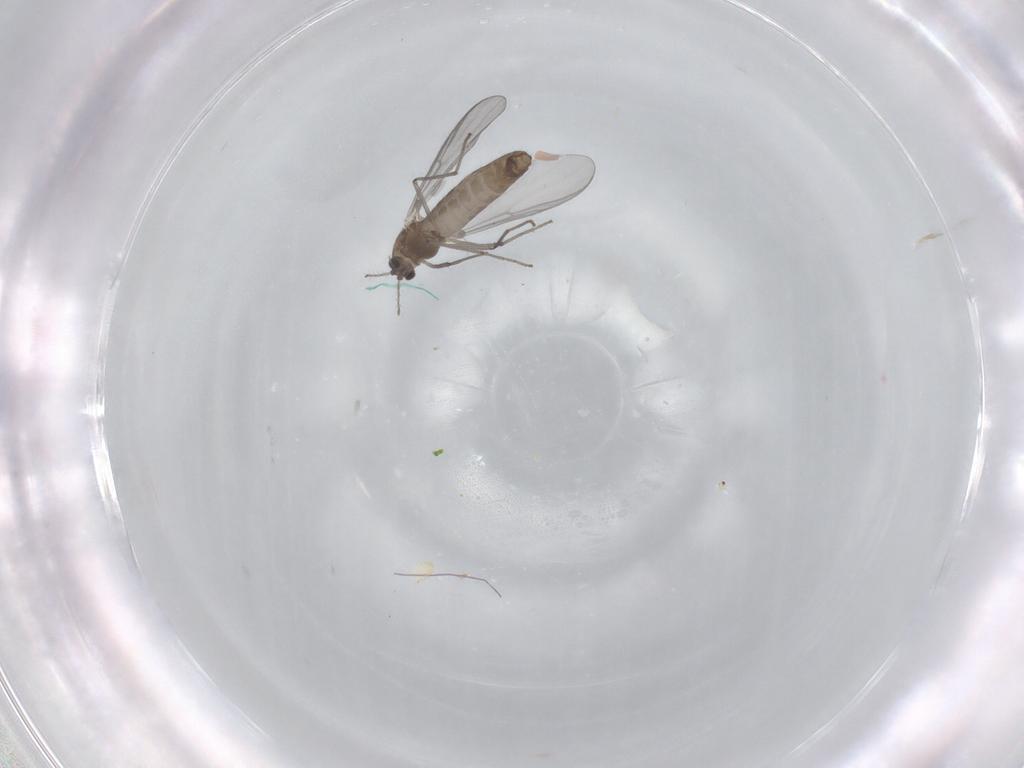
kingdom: Animalia
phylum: Arthropoda
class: Insecta
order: Diptera
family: Chironomidae
